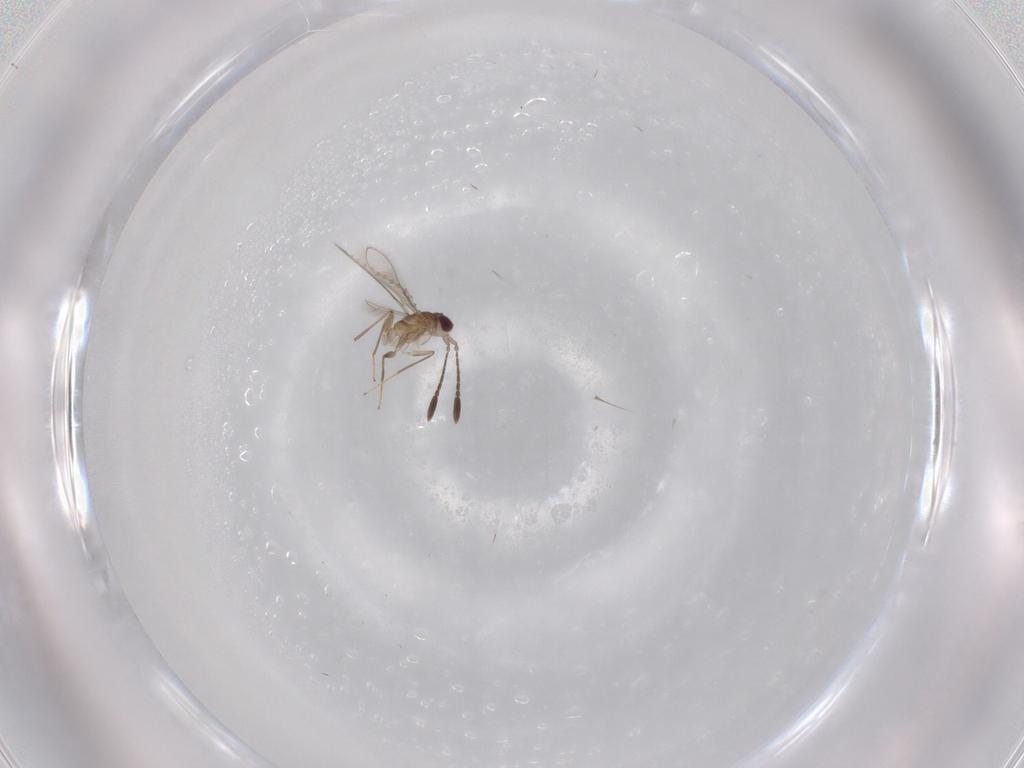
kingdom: Animalia
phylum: Arthropoda
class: Insecta
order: Hymenoptera
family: Mymaridae
